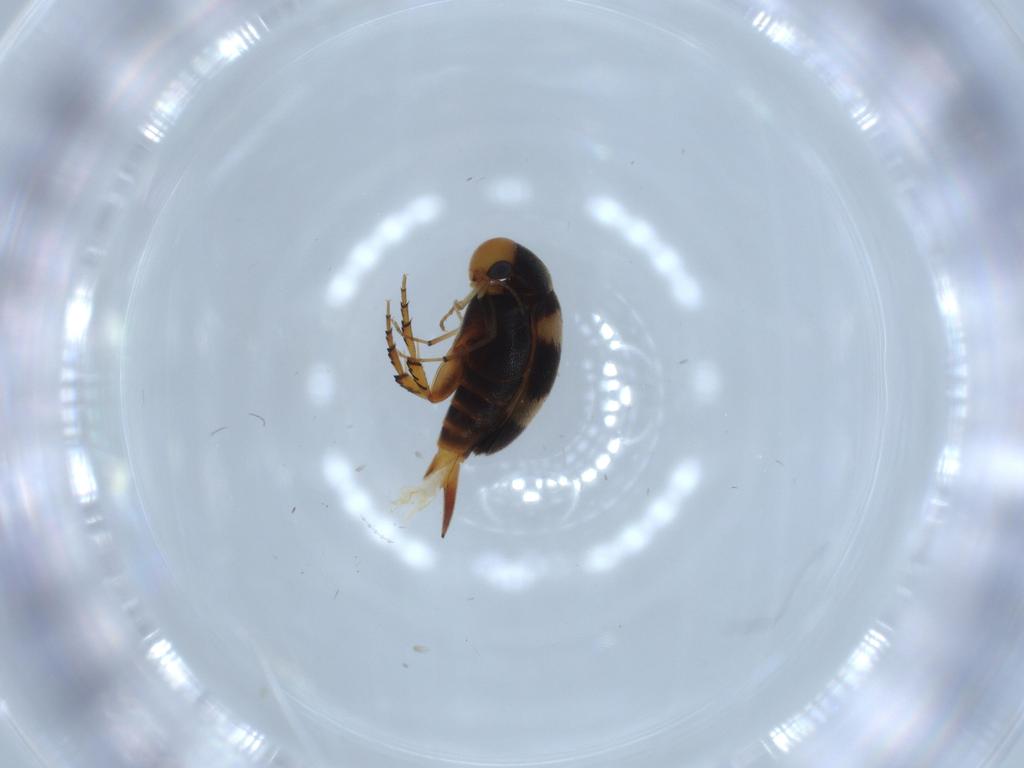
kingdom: Animalia
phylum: Arthropoda
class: Insecta
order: Coleoptera
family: Mordellidae
